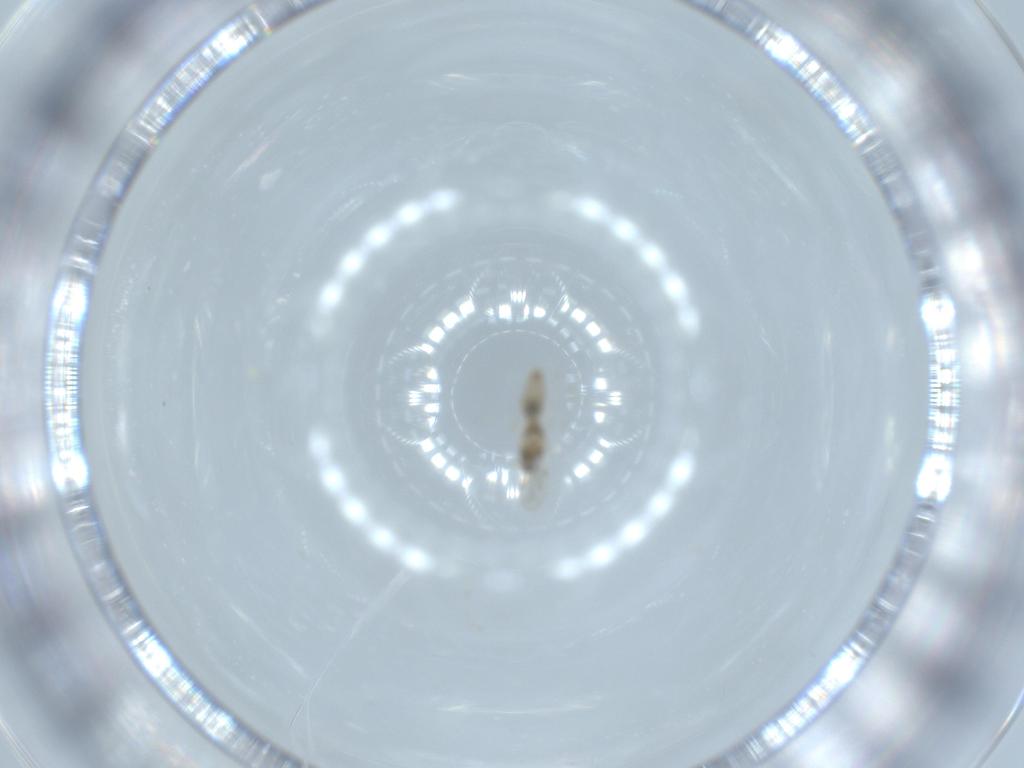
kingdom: Animalia
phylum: Arthropoda
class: Insecta
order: Diptera
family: Cecidomyiidae
